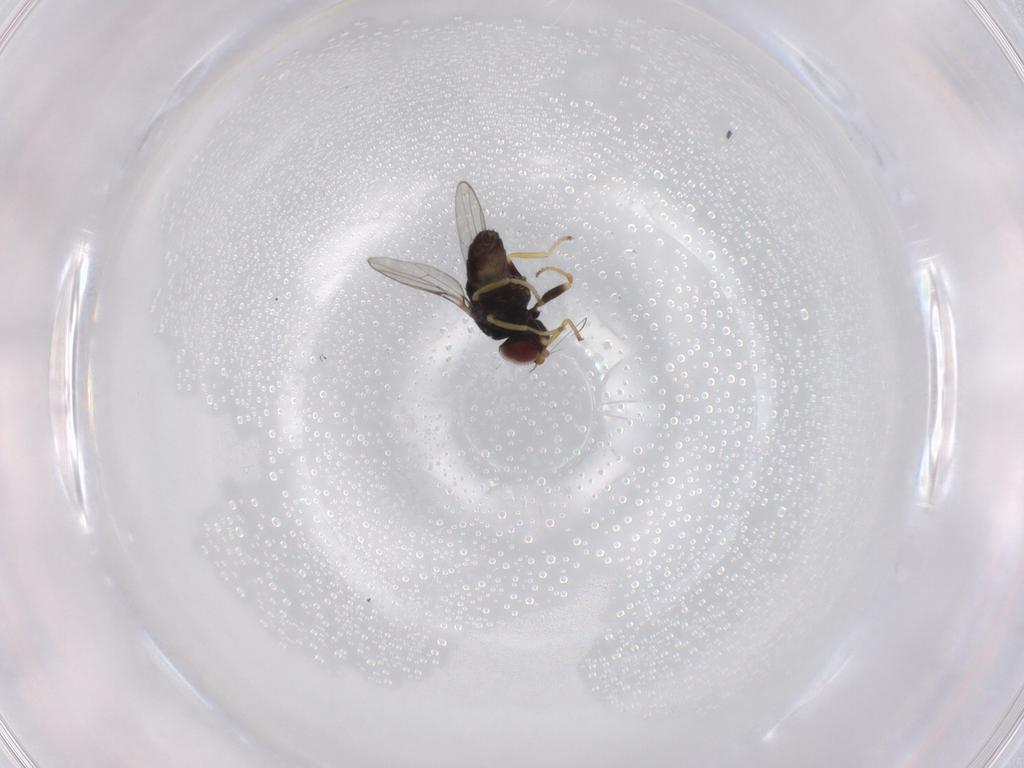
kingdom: Animalia
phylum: Arthropoda
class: Insecta
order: Diptera
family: Chloropidae
